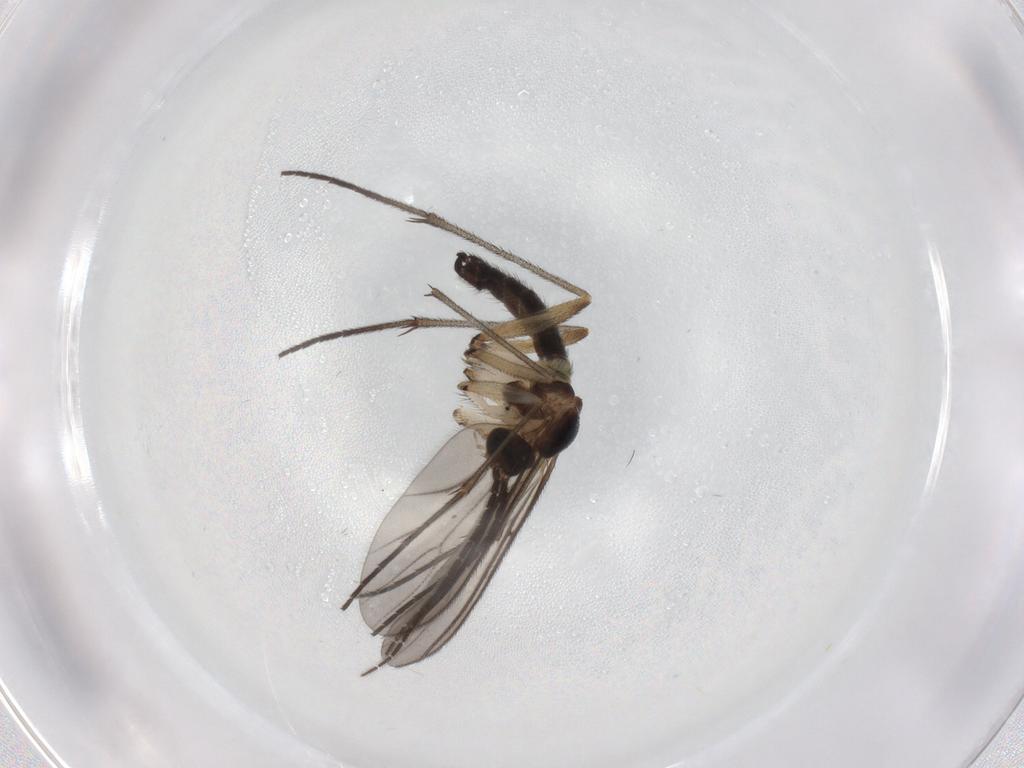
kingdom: Animalia
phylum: Arthropoda
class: Insecta
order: Diptera
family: Sciaridae
